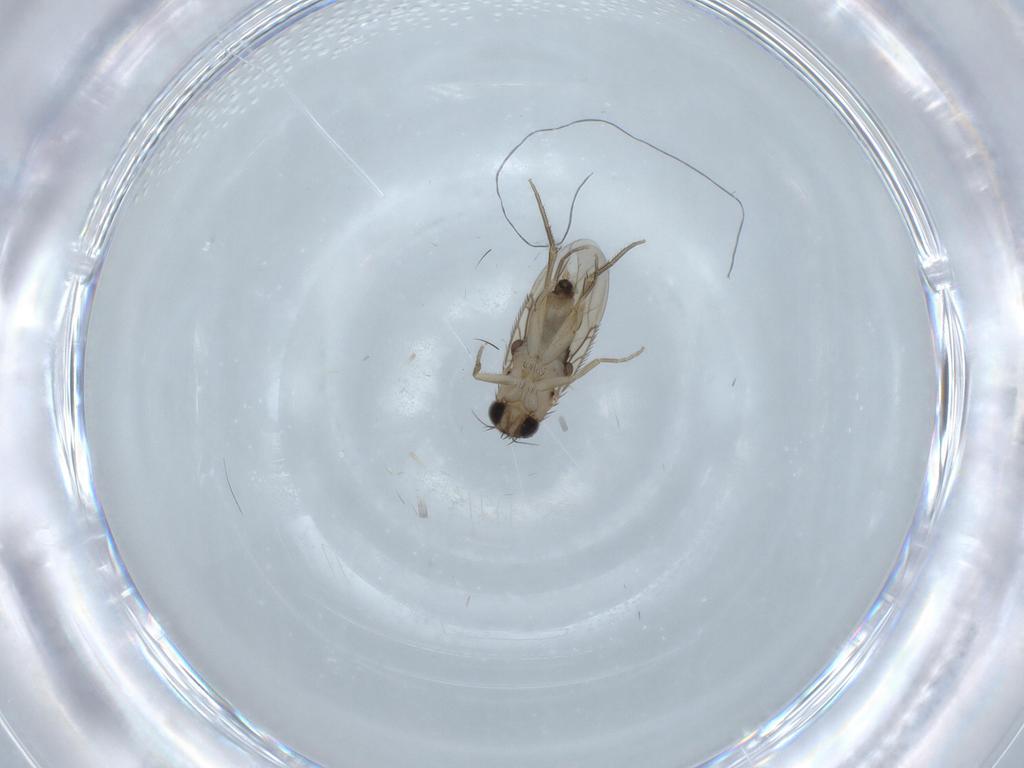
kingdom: Animalia
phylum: Arthropoda
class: Insecta
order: Diptera
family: Phoridae
